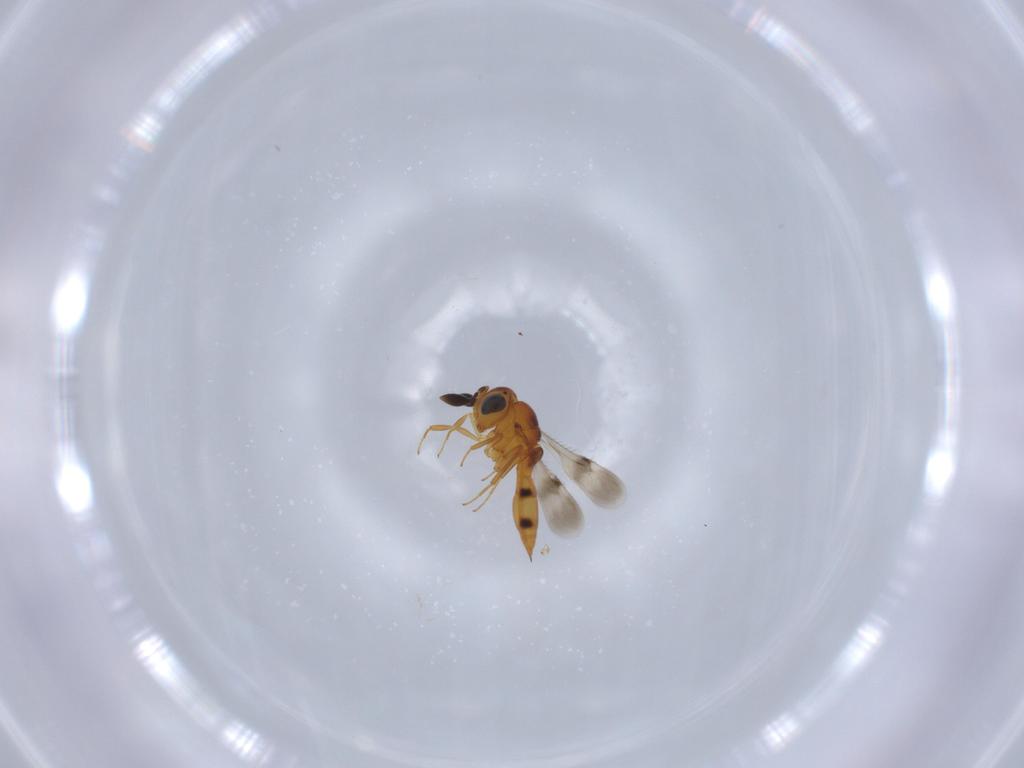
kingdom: Animalia
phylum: Arthropoda
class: Insecta
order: Hymenoptera
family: Scelionidae
